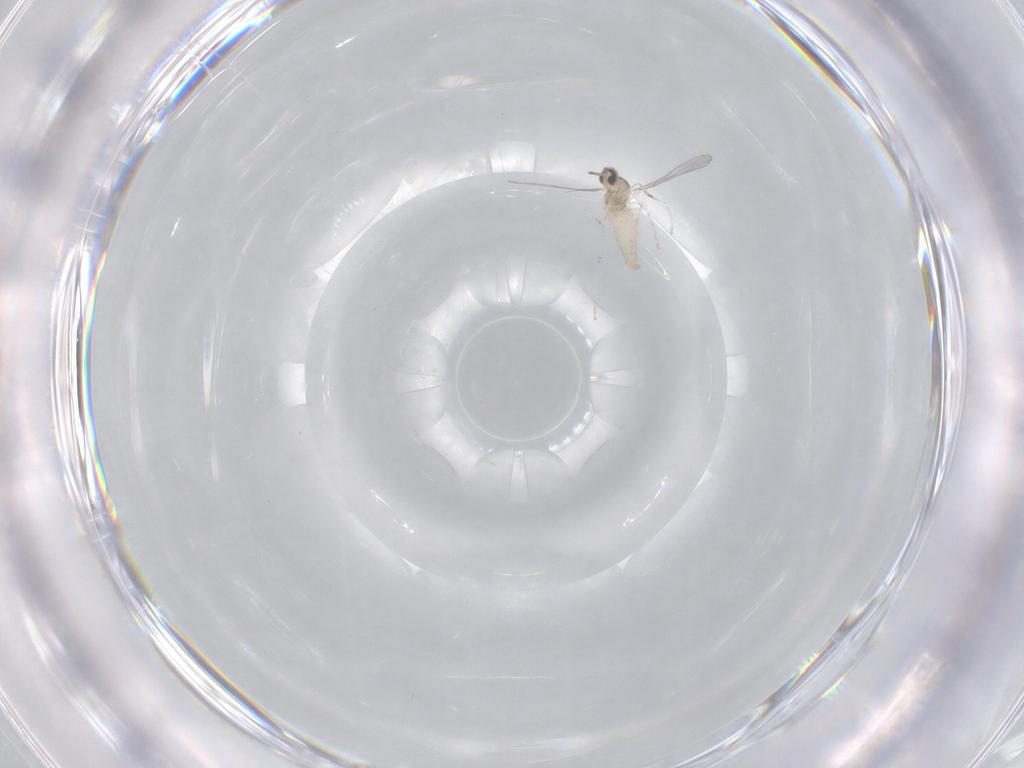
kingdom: Animalia
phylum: Arthropoda
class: Insecta
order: Diptera
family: Cecidomyiidae
